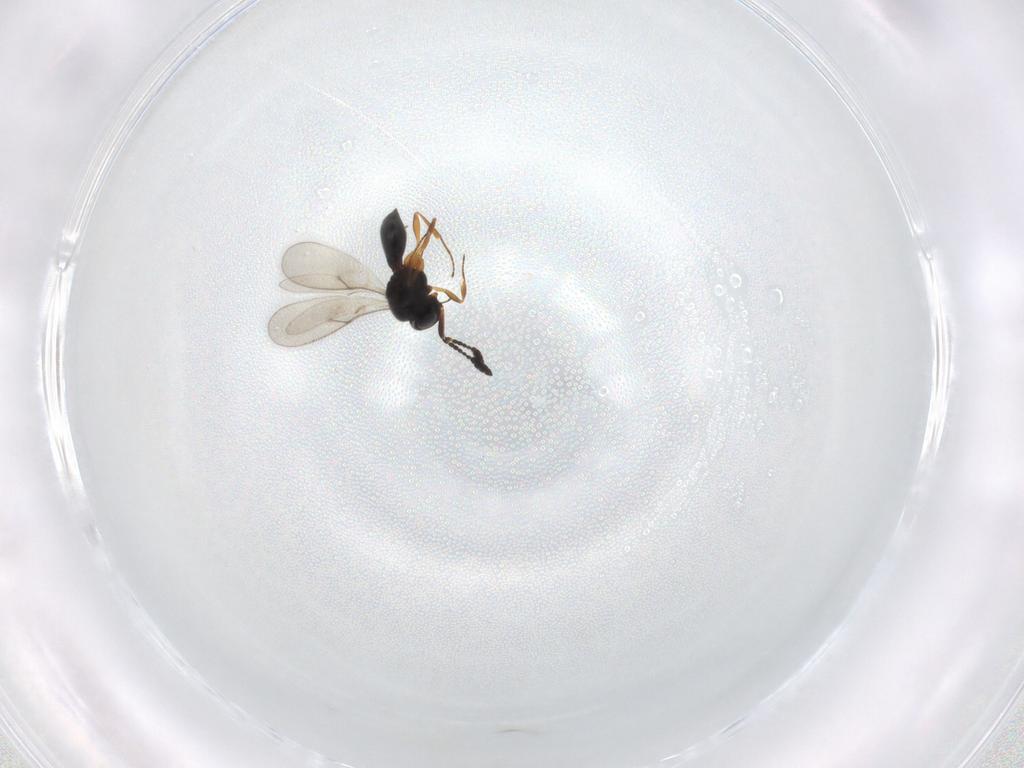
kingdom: Animalia
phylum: Arthropoda
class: Insecta
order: Hymenoptera
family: Scelionidae
